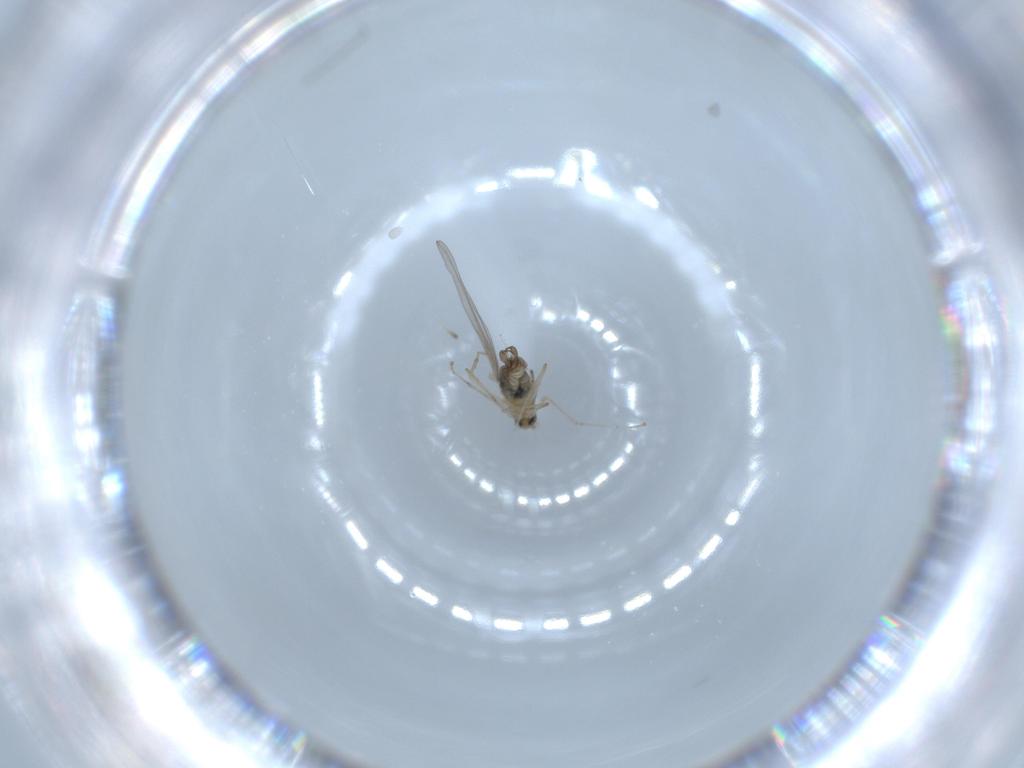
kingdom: Animalia
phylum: Arthropoda
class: Insecta
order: Diptera
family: Cecidomyiidae
